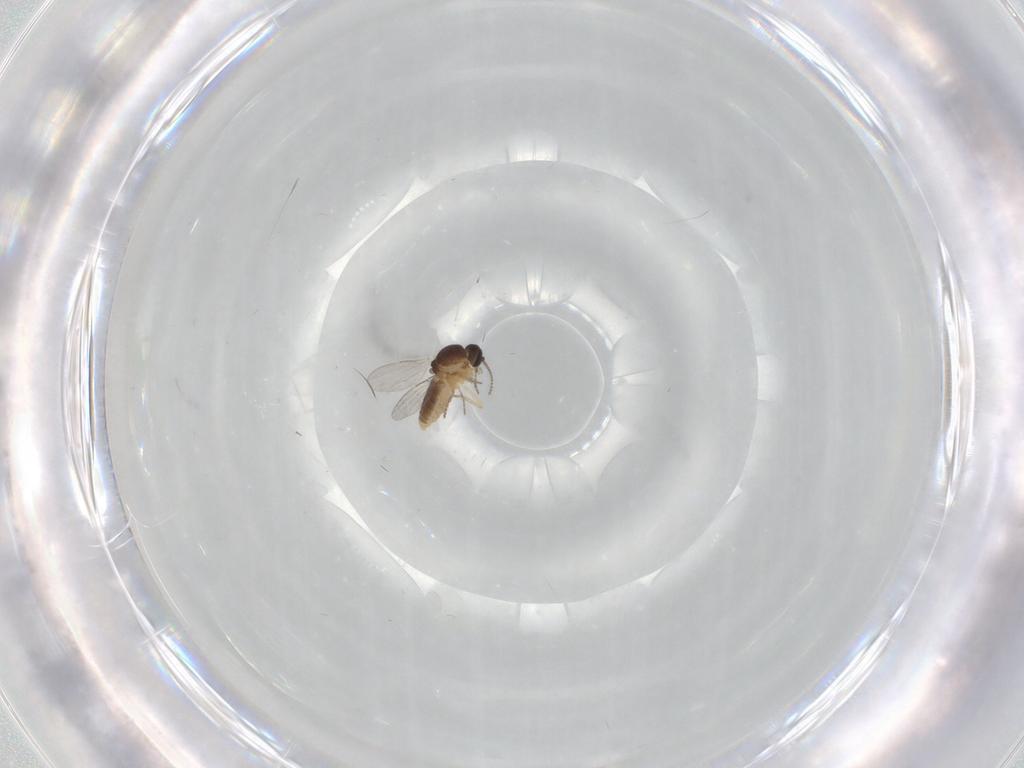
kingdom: Animalia
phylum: Arthropoda
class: Insecta
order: Diptera
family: Ceratopogonidae
